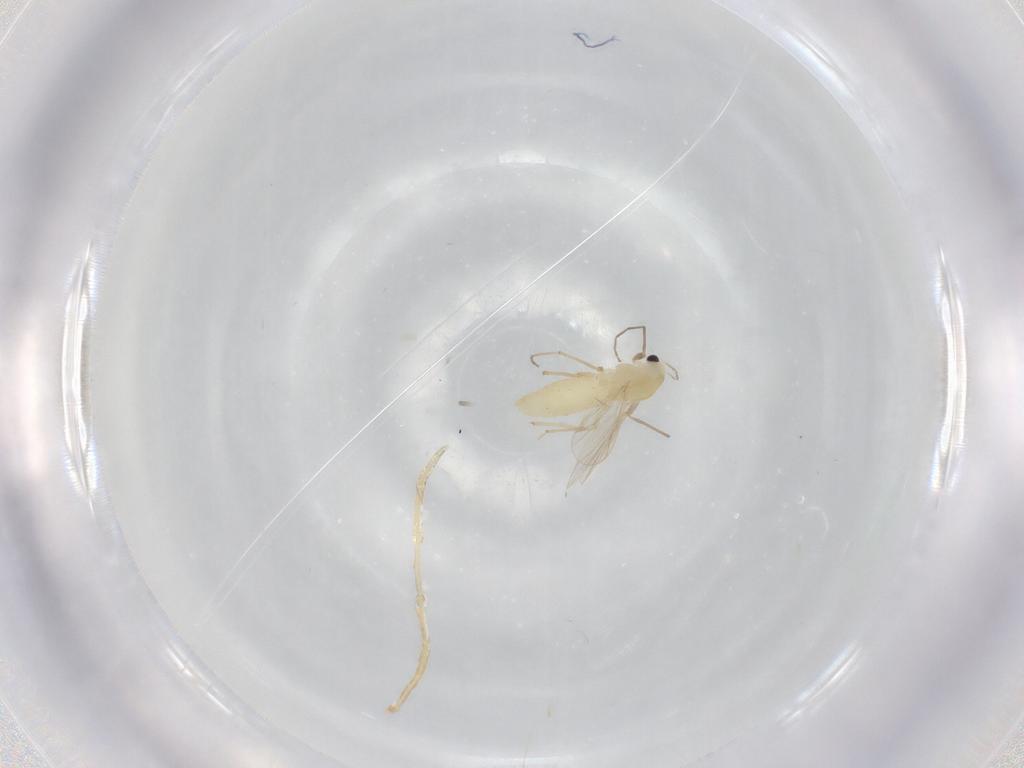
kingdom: Animalia
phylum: Arthropoda
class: Insecta
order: Diptera
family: Chironomidae
